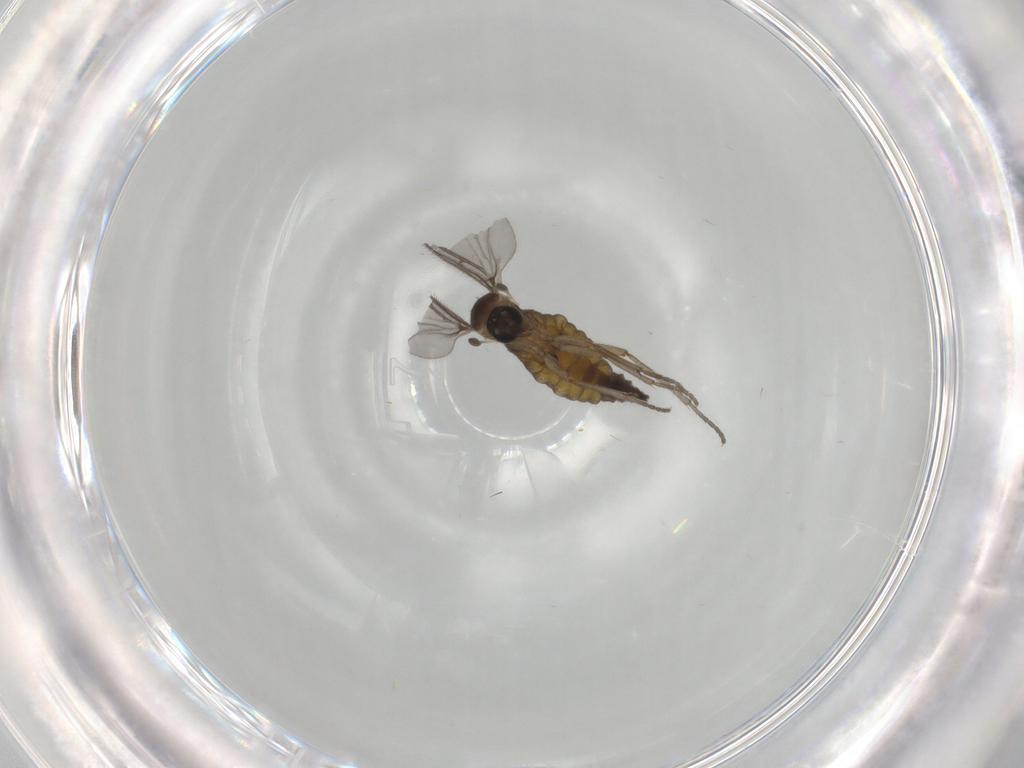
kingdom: Animalia
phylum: Arthropoda
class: Insecta
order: Diptera
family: Sciaridae
